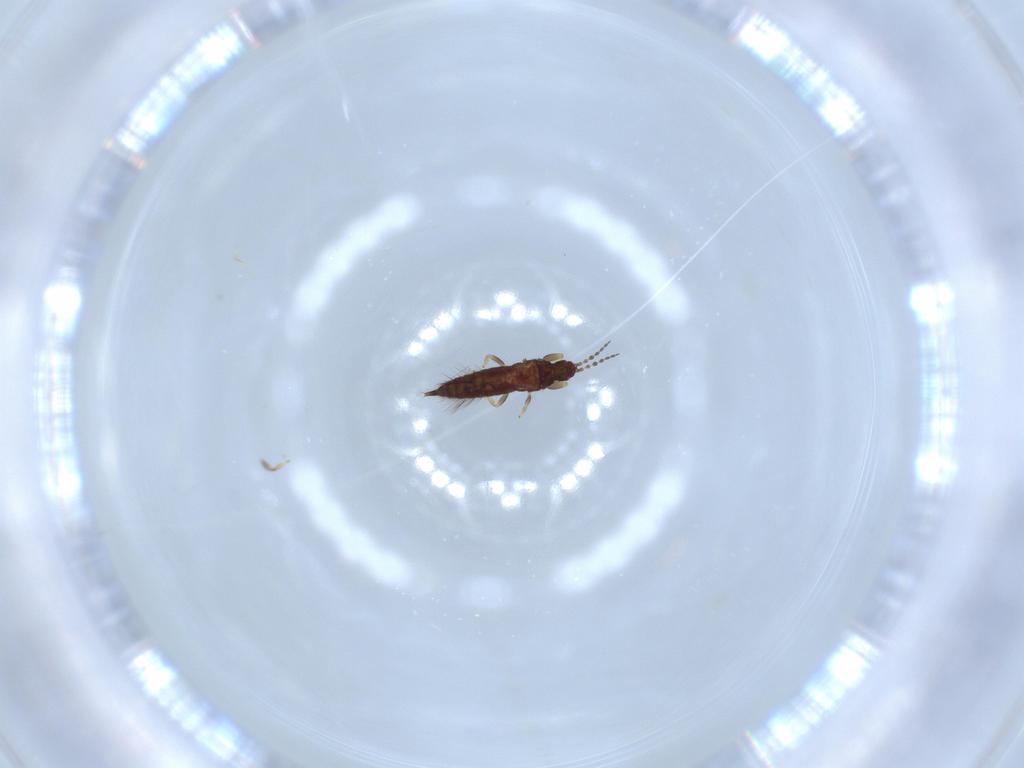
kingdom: Animalia
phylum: Arthropoda
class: Insecta
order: Thysanoptera
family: Phlaeothripidae
